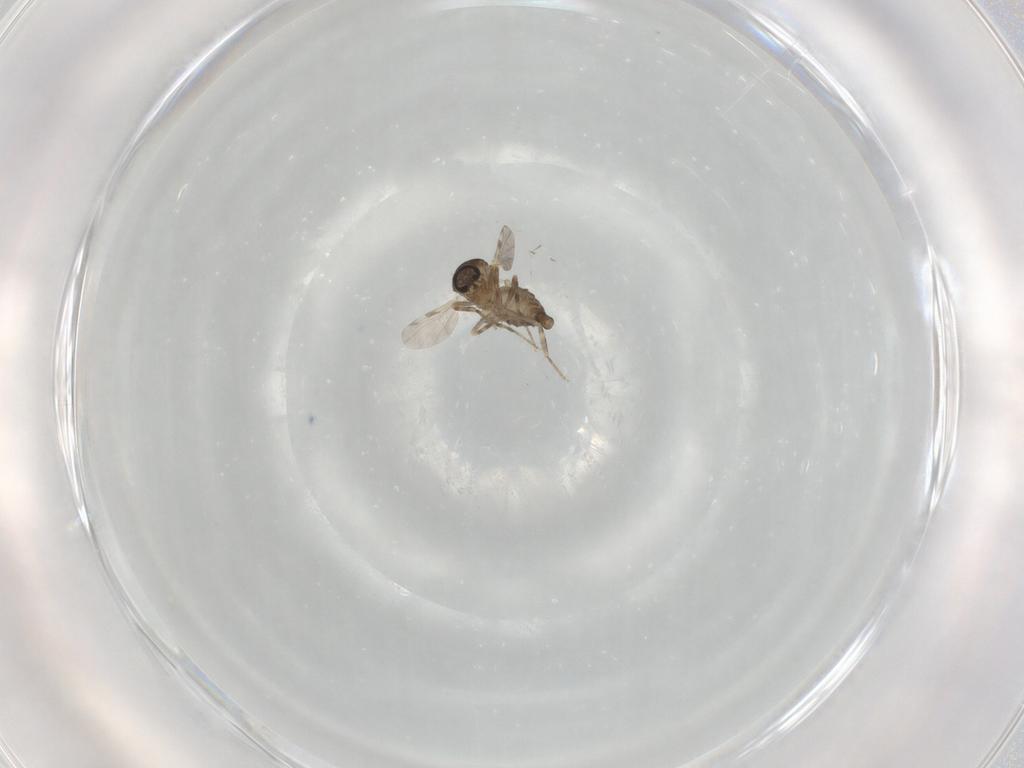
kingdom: Animalia
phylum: Arthropoda
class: Insecta
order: Diptera
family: Ceratopogonidae
